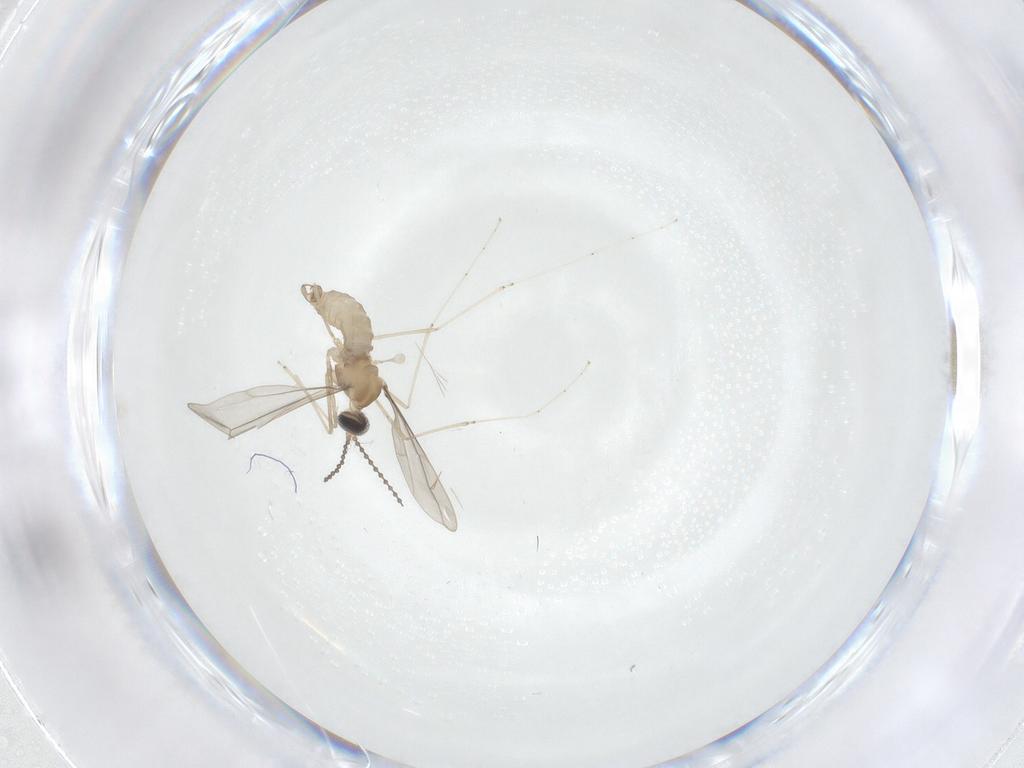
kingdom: Animalia
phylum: Arthropoda
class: Insecta
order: Diptera
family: Cecidomyiidae
